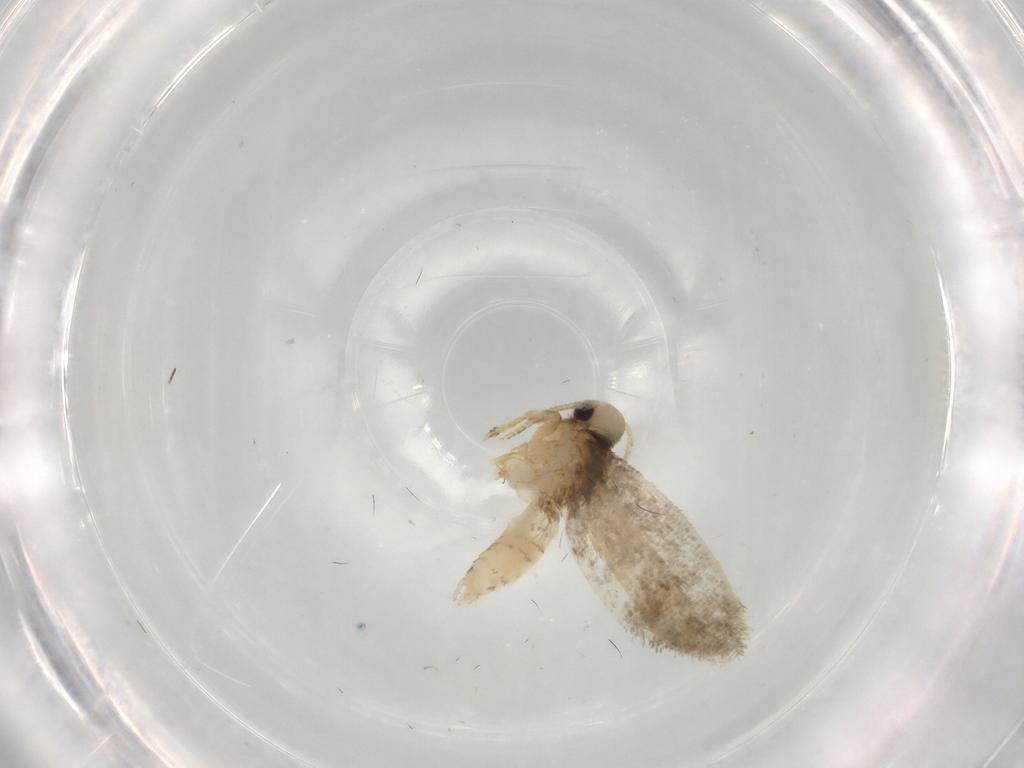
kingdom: Animalia
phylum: Arthropoda
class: Insecta
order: Lepidoptera
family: Psychidae
